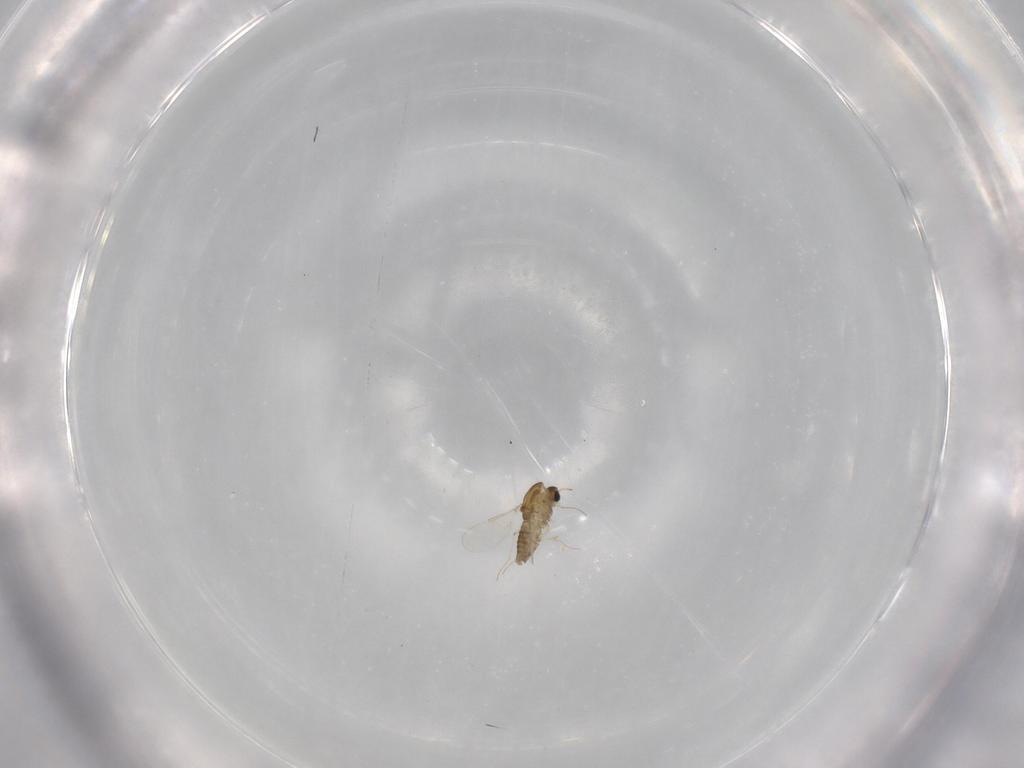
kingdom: Animalia
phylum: Arthropoda
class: Insecta
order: Diptera
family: Chironomidae
